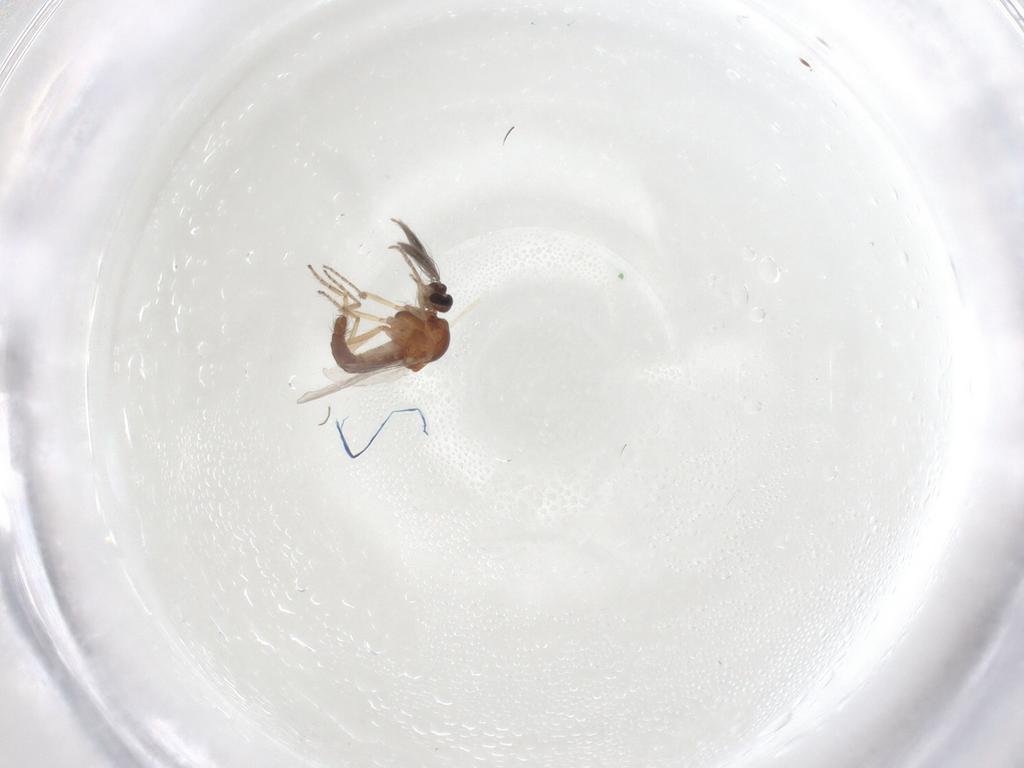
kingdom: Animalia
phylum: Arthropoda
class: Insecta
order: Diptera
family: Ceratopogonidae
